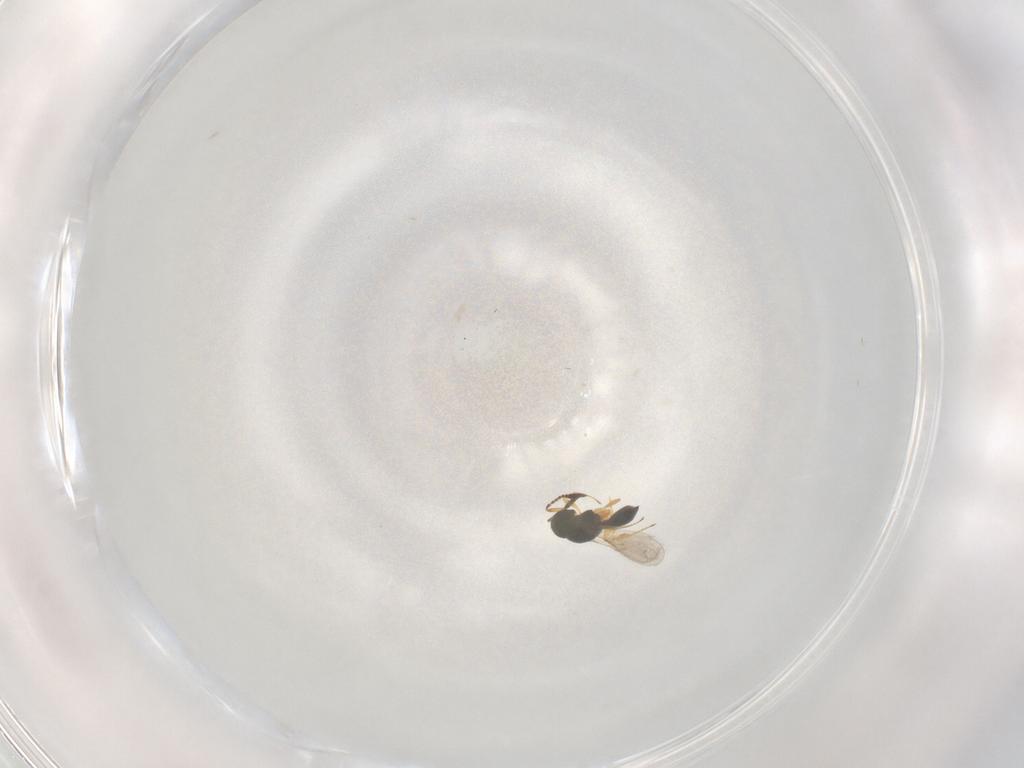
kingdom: Animalia
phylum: Arthropoda
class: Insecta
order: Hymenoptera
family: Scelionidae
